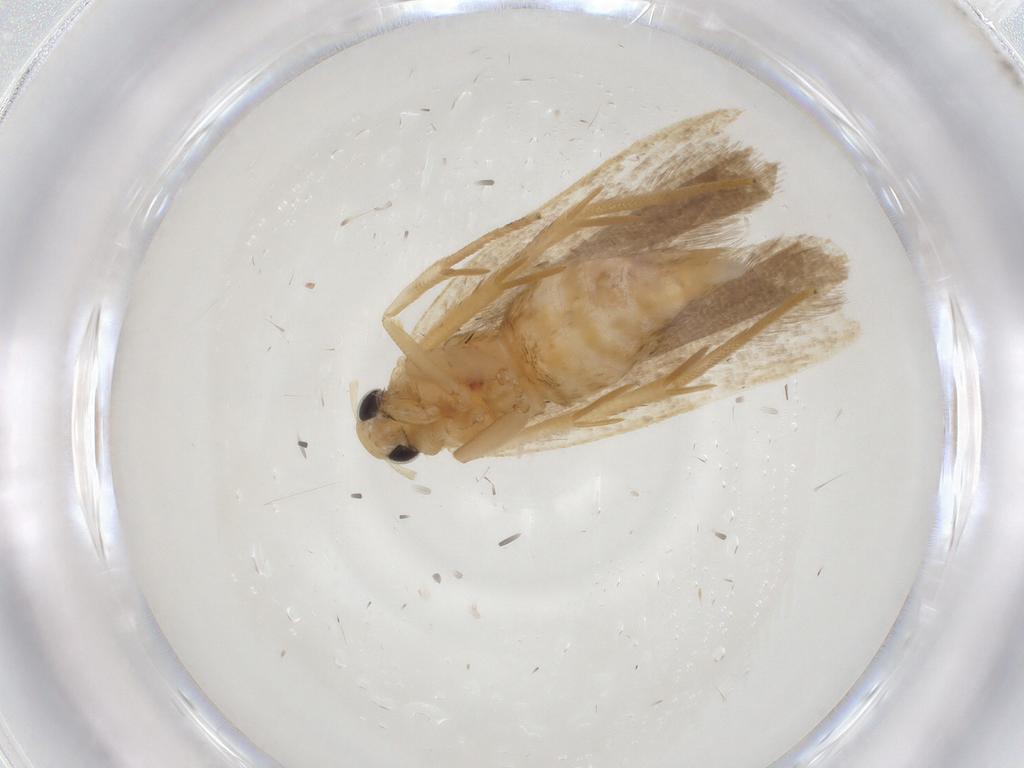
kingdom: Animalia
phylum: Arthropoda
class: Insecta
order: Lepidoptera
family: Gelechiidae
